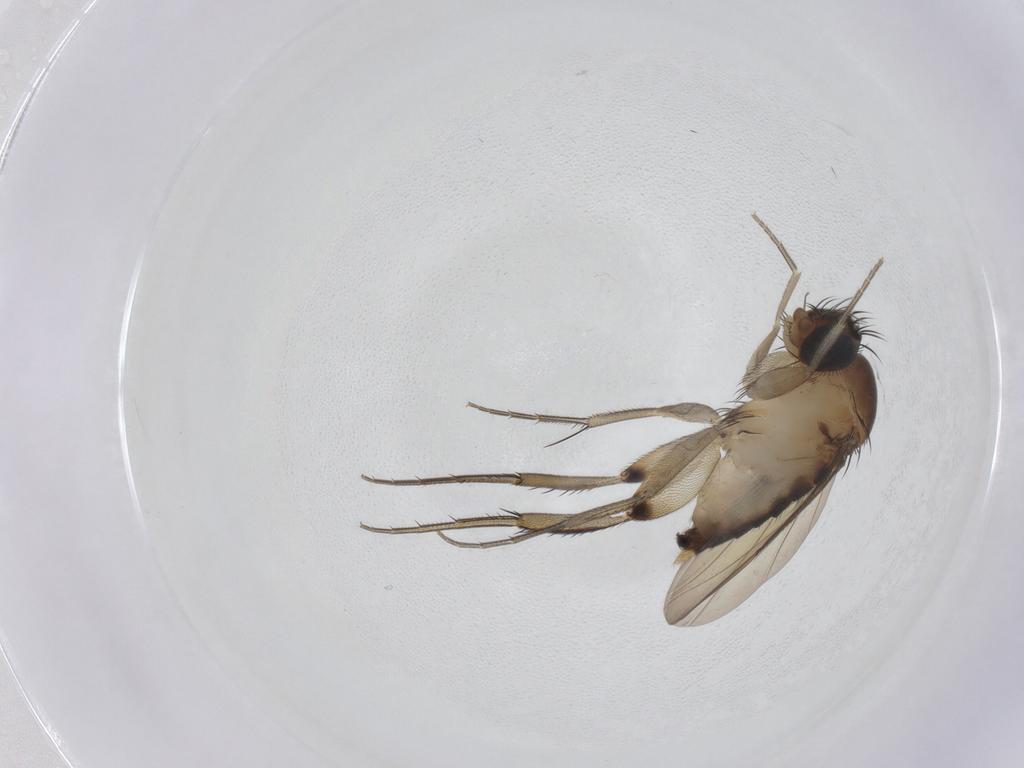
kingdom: Animalia
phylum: Arthropoda
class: Insecta
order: Diptera
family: Phoridae
